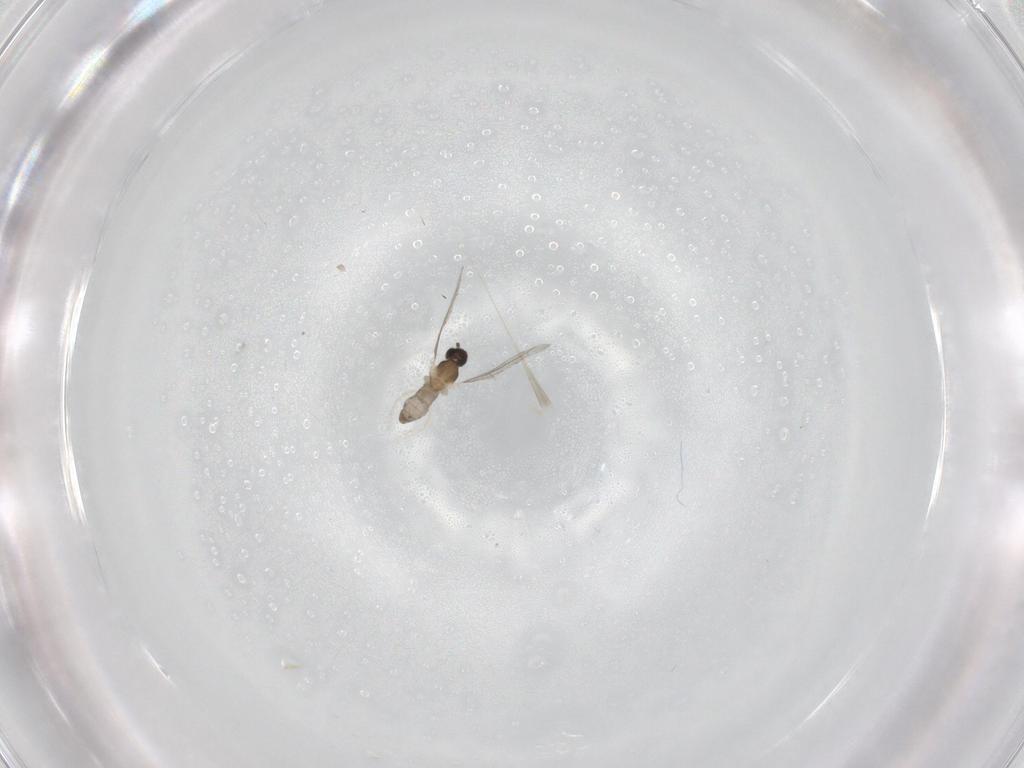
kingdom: Animalia
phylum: Arthropoda
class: Insecta
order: Diptera
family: Cecidomyiidae
